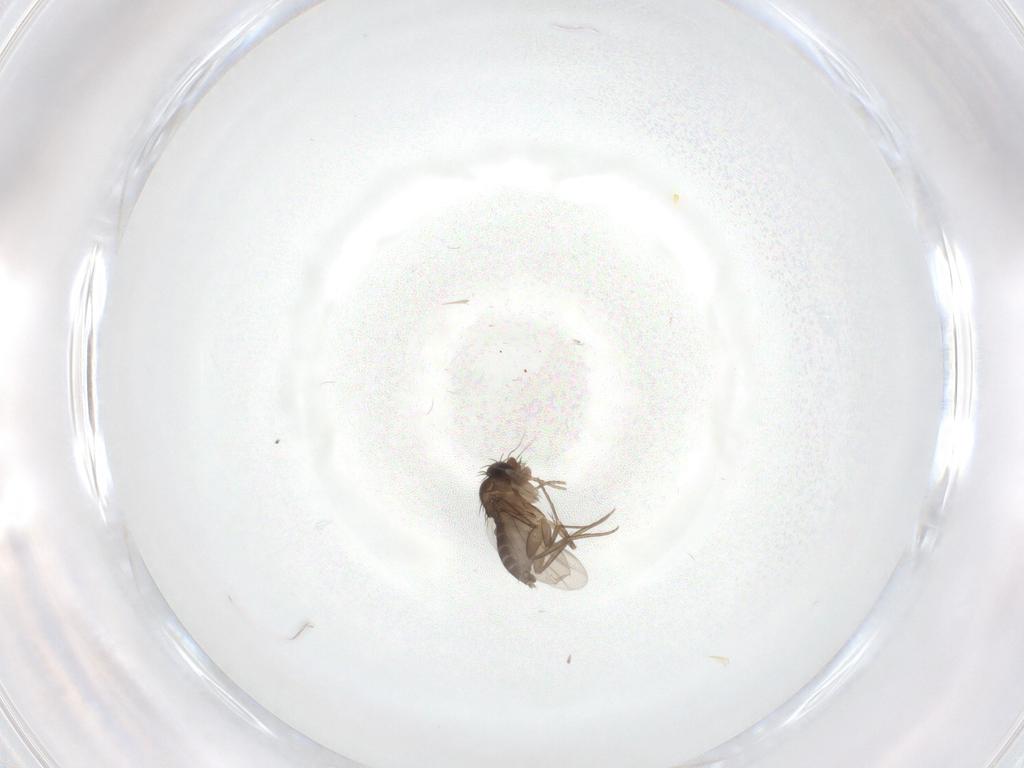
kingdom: Animalia
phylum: Arthropoda
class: Insecta
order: Diptera
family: Phoridae
